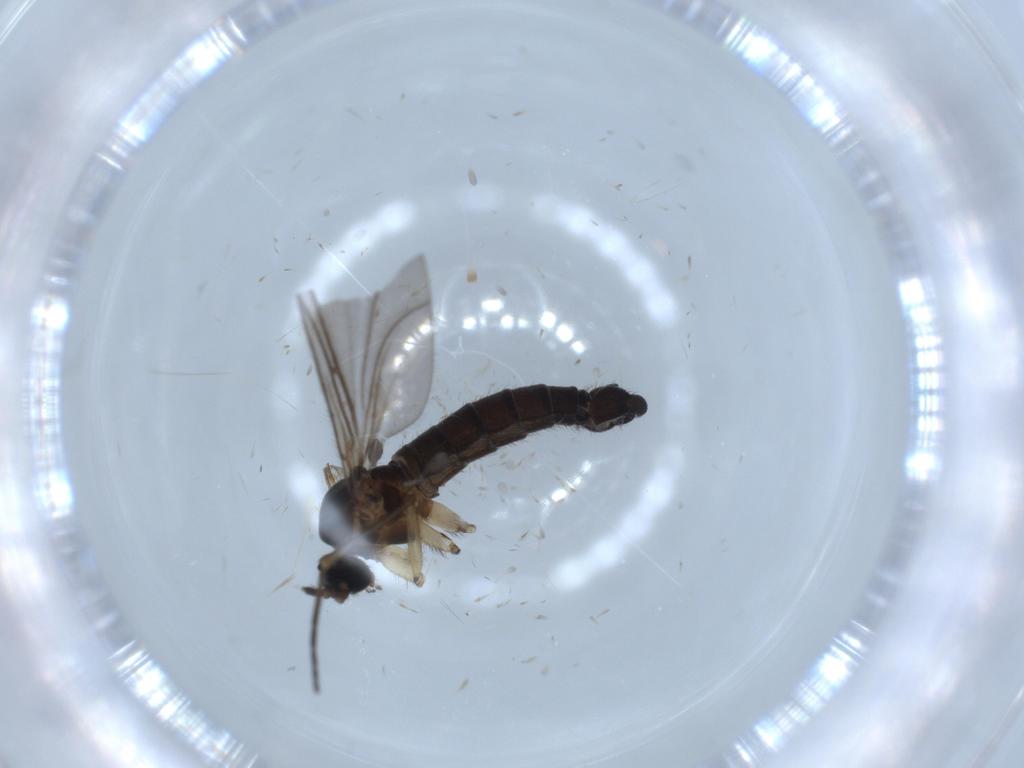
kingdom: Animalia
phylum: Arthropoda
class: Insecta
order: Diptera
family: Sciaridae
